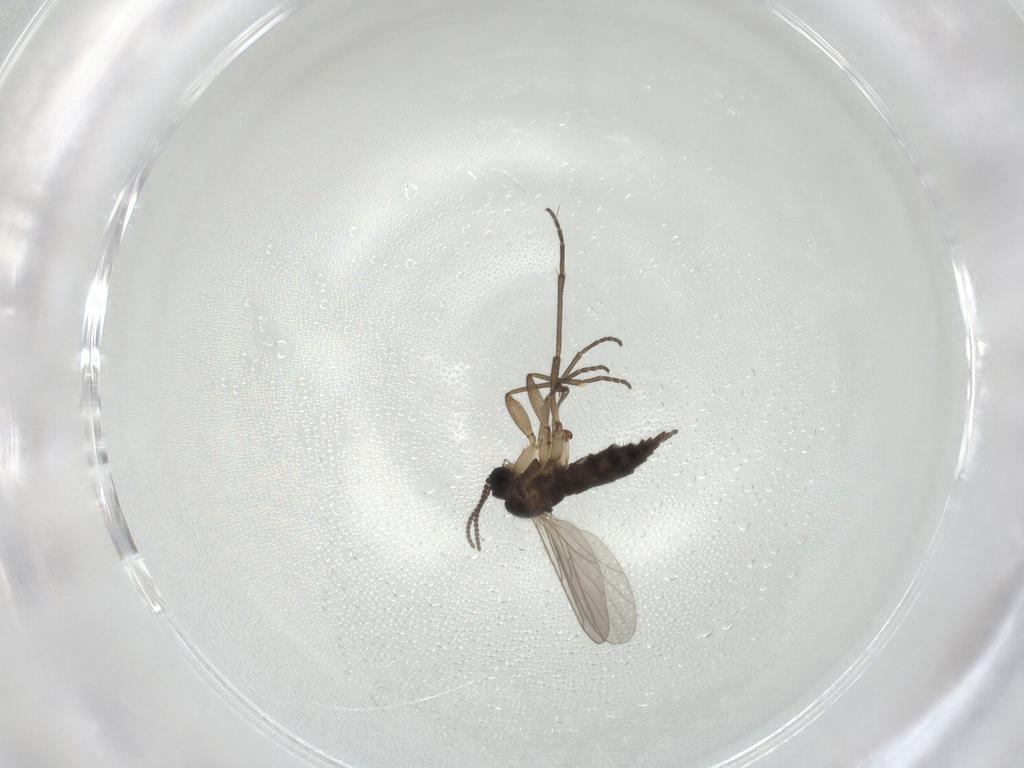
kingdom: Animalia
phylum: Arthropoda
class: Insecta
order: Diptera
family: Sciaridae
